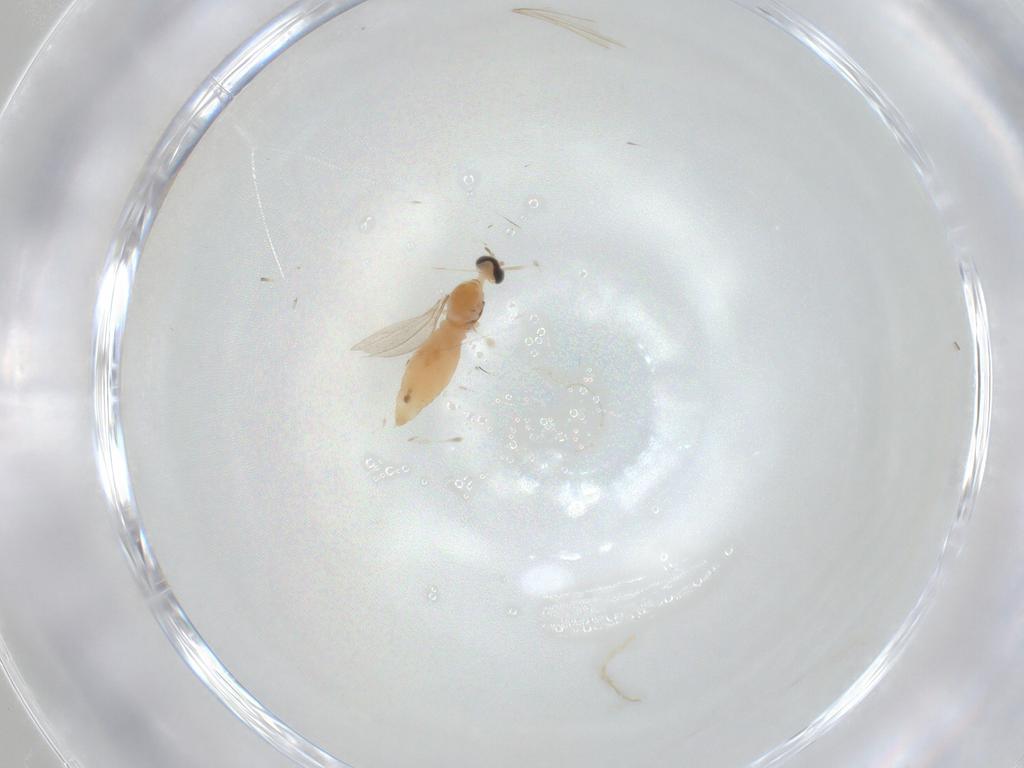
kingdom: Animalia
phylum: Arthropoda
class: Insecta
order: Diptera
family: Cecidomyiidae
